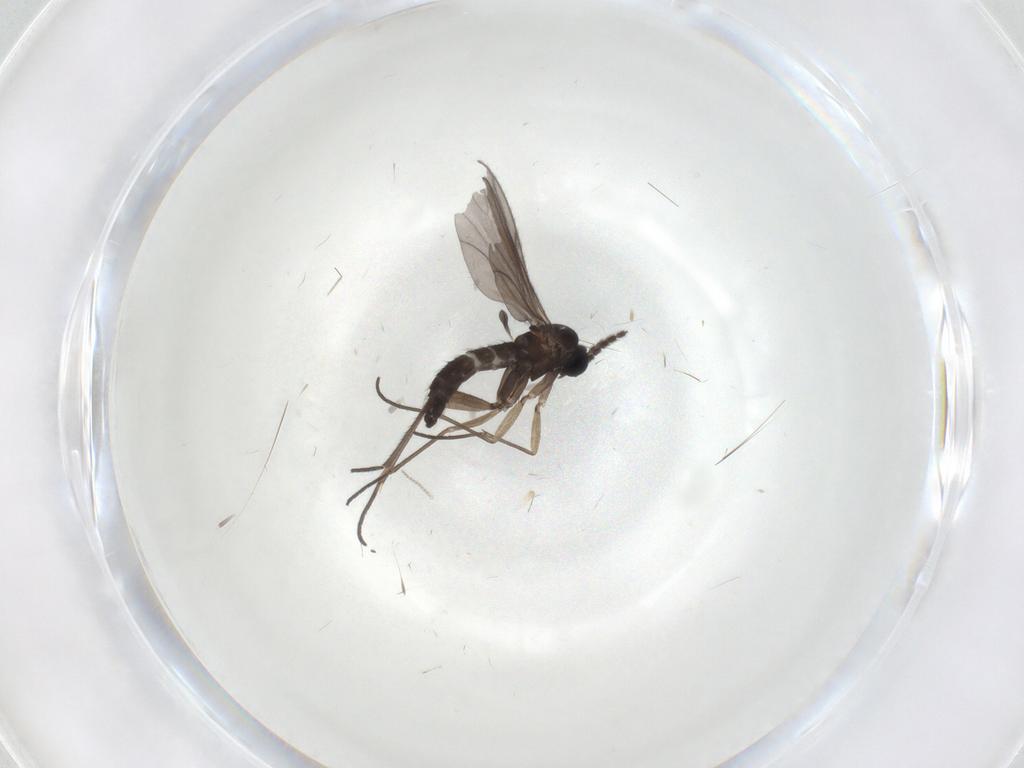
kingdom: Animalia
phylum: Arthropoda
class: Insecta
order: Diptera
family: Sciaridae
